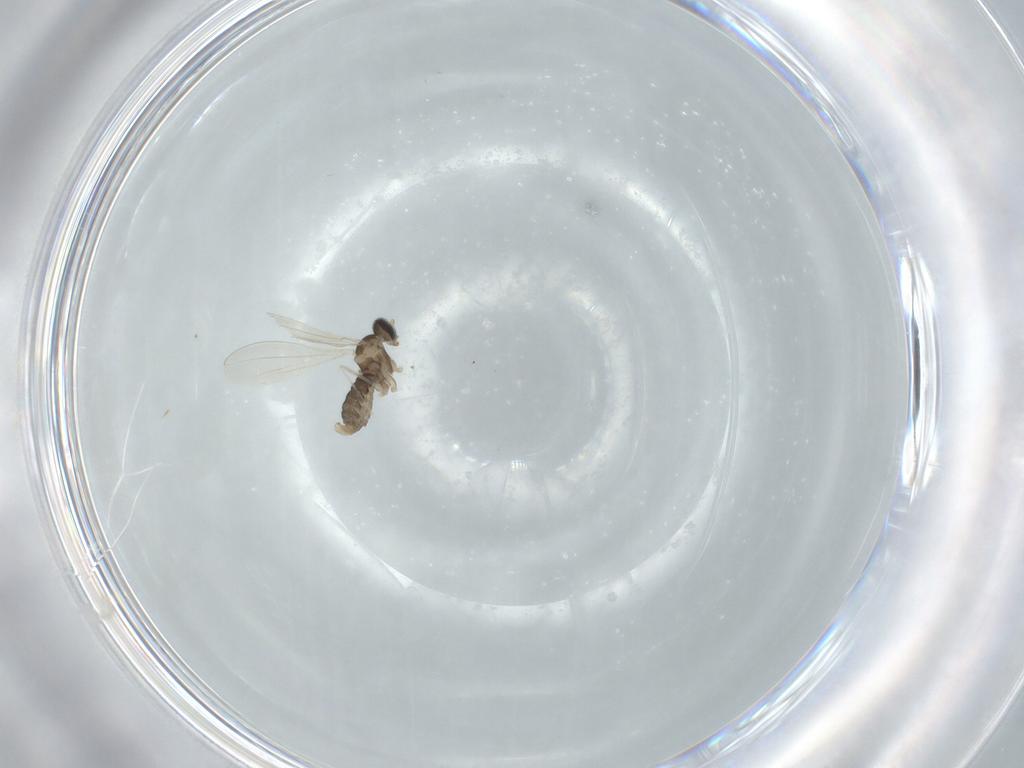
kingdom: Animalia
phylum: Arthropoda
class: Insecta
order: Diptera
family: Cecidomyiidae
